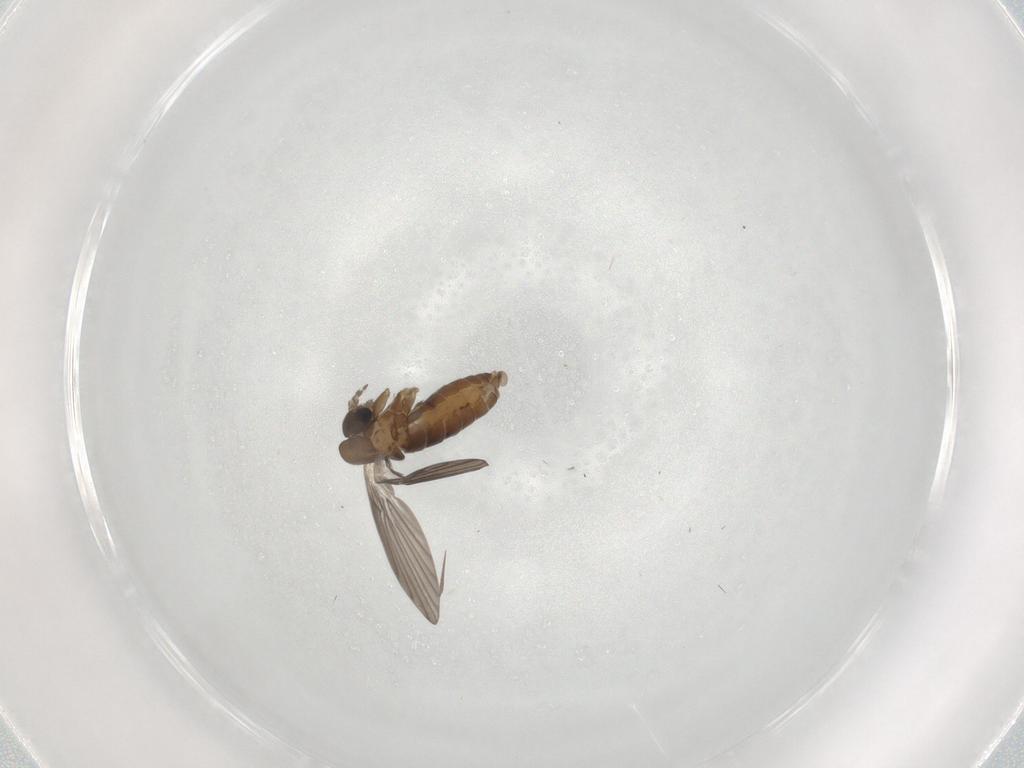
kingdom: Animalia
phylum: Arthropoda
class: Insecta
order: Diptera
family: Psychodidae
